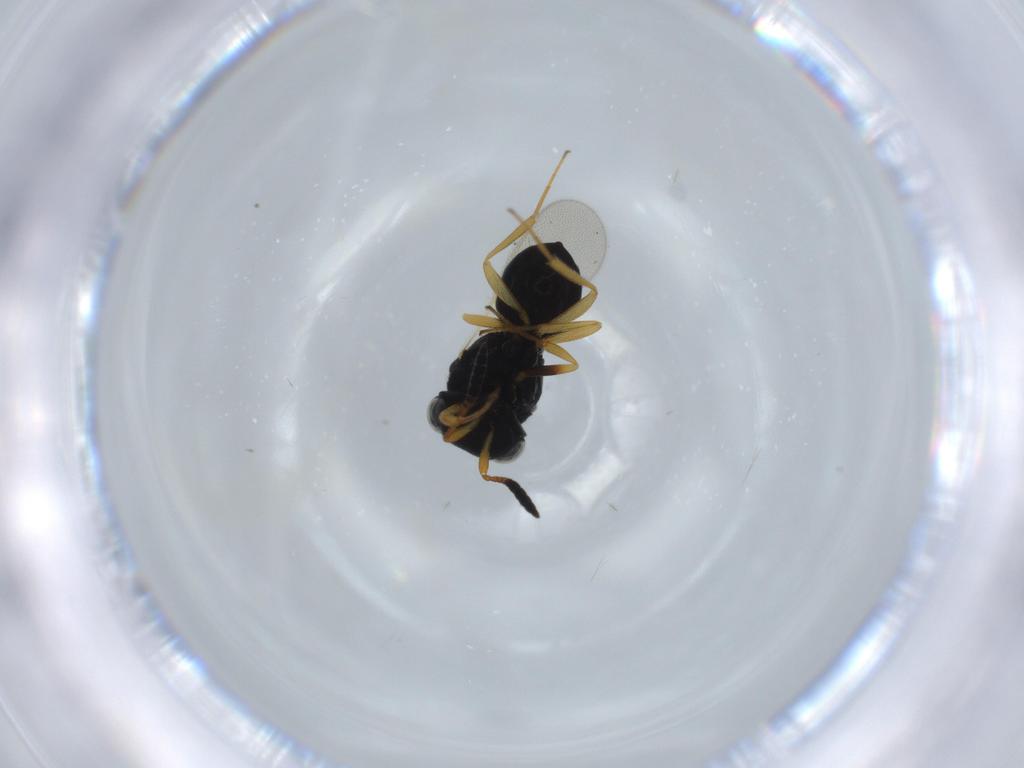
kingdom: Animalia
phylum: Arthropoda
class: Insecta
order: Hymenoptera
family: Scelionidae
